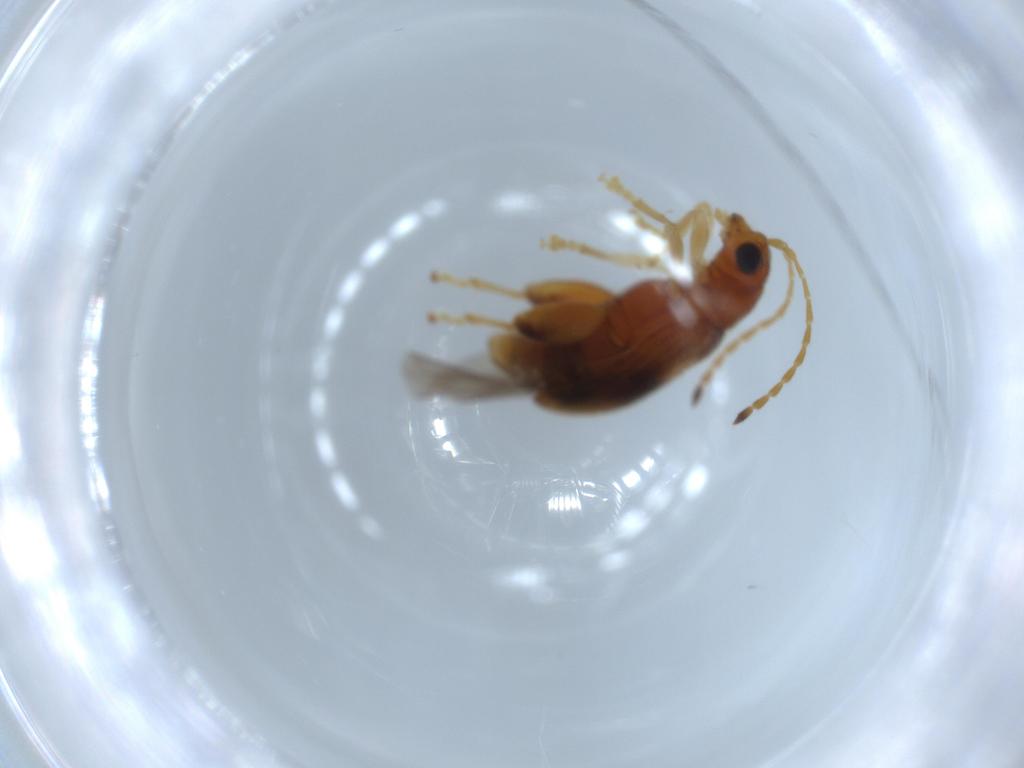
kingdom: Animalia
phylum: Arthropoda
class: Insecta
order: Coleoptera
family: Chrysomelidae
